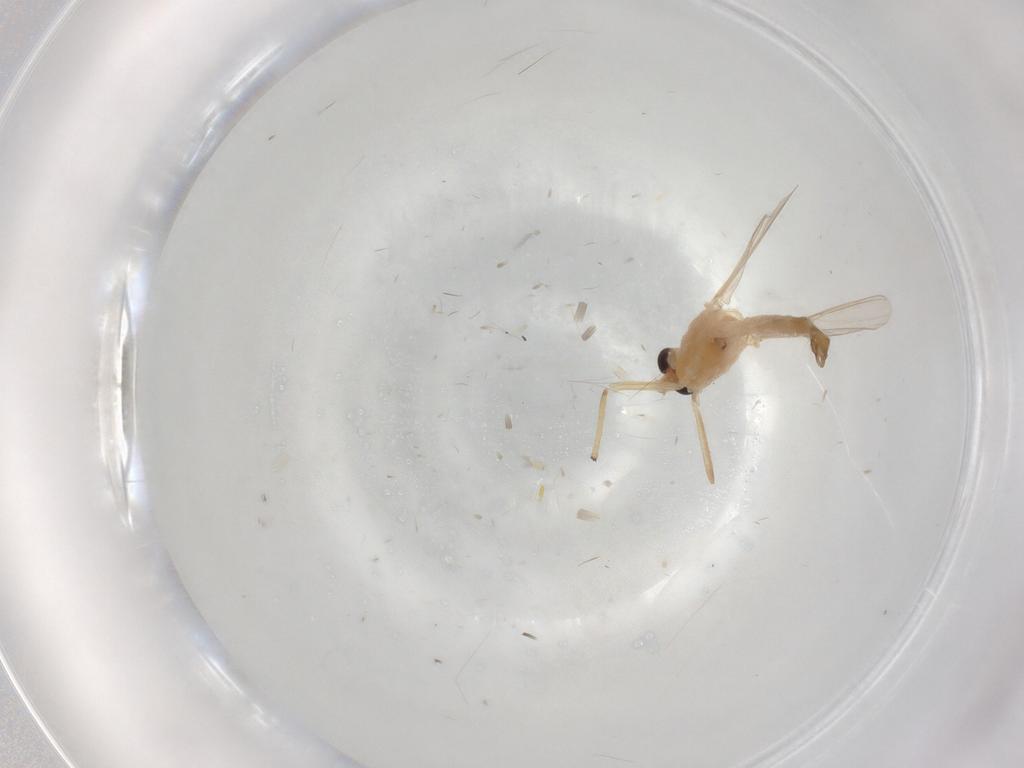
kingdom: Animalia
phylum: Arthropoda
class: Insecta
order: Diptera
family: Chironomidae
